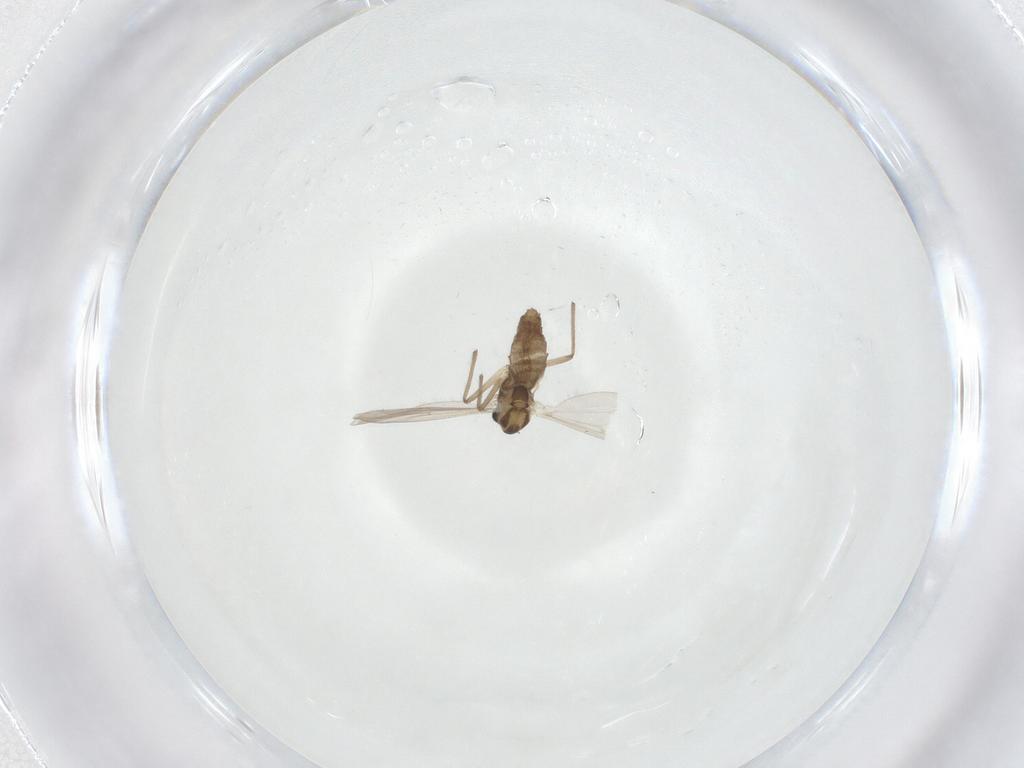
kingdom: Animalia
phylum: Arthropoda
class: Insecta
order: Diptera
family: Chironomidae
